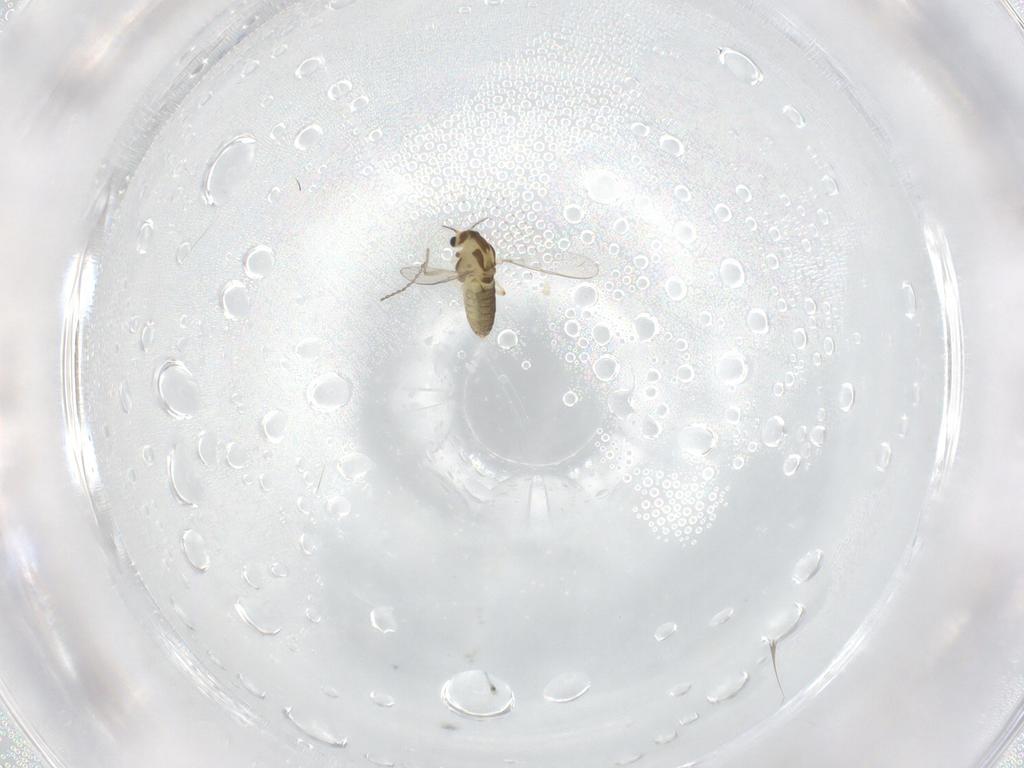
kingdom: Animalia
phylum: Arthropoda
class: Insecta
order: Diptera
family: Cecidomyiidae
